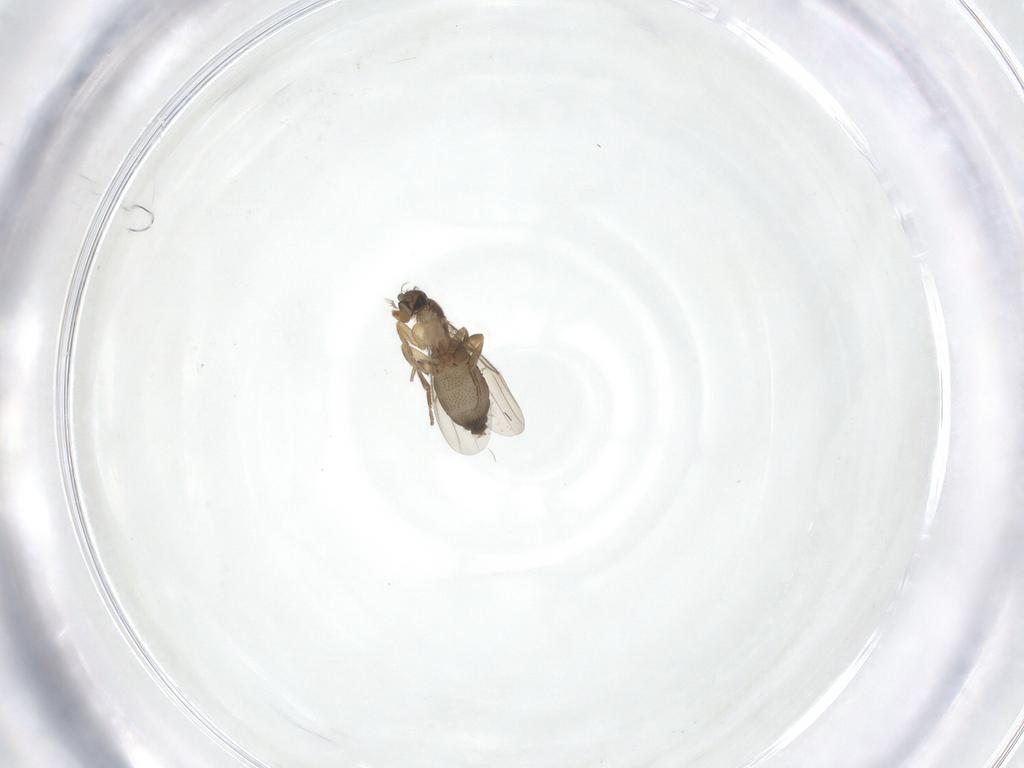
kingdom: Animalia
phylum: Arthropoda
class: Insecta
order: Diptera
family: Phoridae
